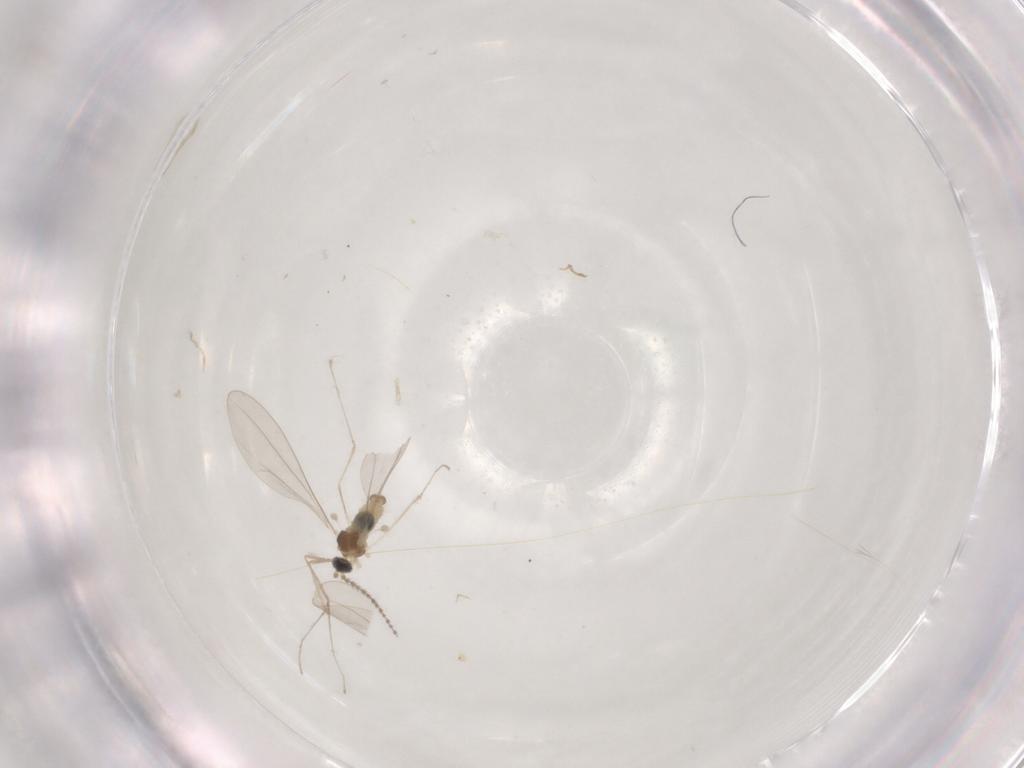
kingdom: Animalia
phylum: Arthropoda
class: Insecta
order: Diptera
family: Cecidomyiidae
